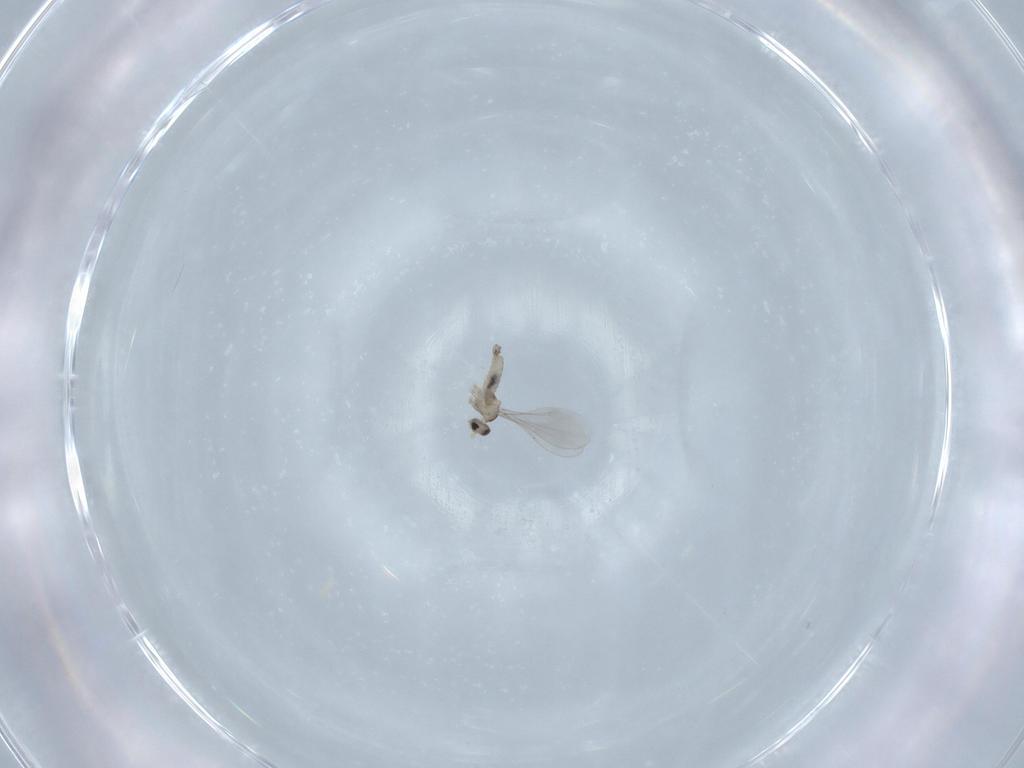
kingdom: Animalia
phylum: Arthropoda
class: Insecta
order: Diptera
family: Cecidomyiidae
